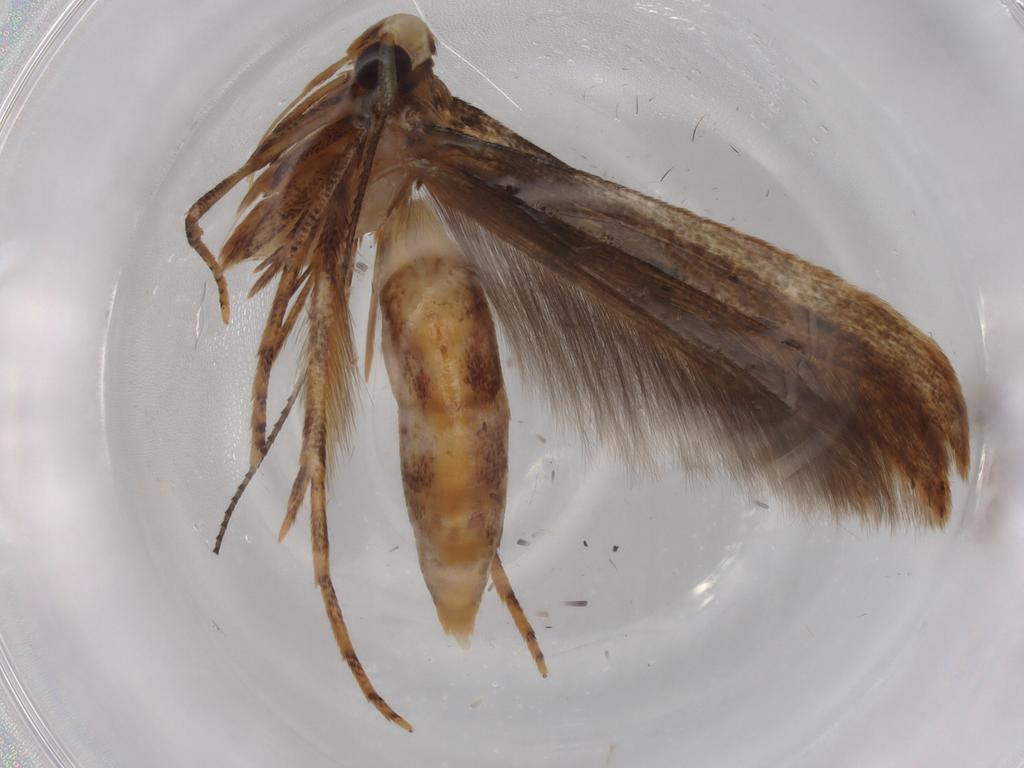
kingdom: Animalia
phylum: Arthropoda
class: Insecta
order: Lepidoptera
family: Gelechiidae
